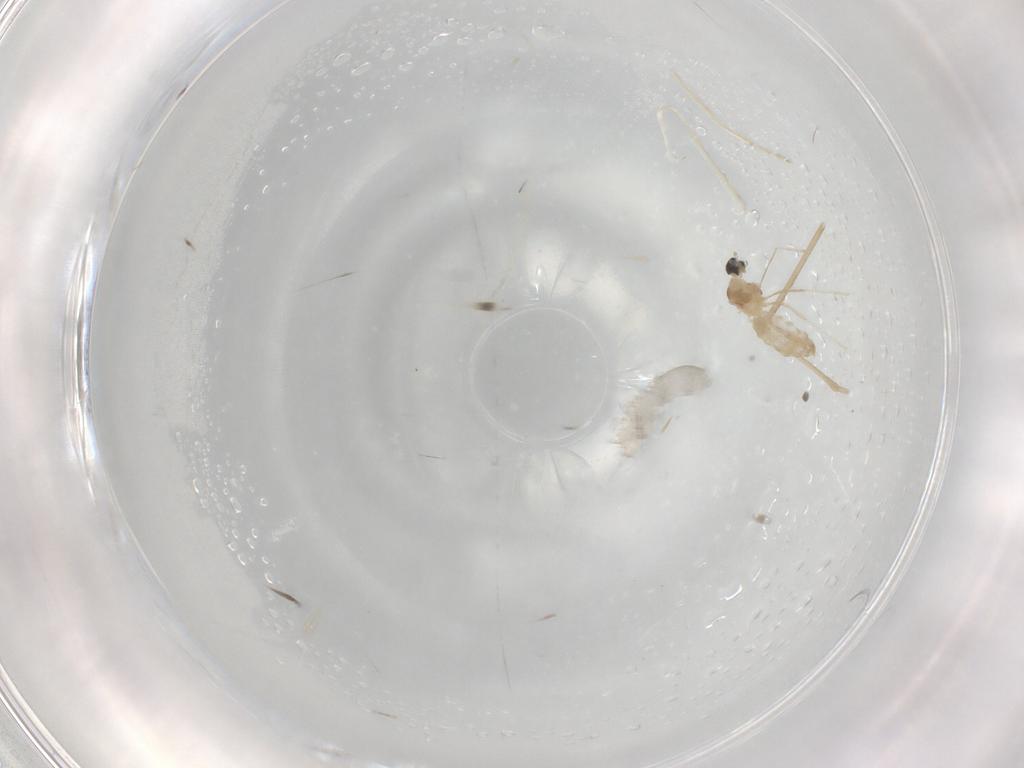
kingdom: Animalia
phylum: Arthropoda
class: Insecta
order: Diptera
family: Cecidomyiidae
